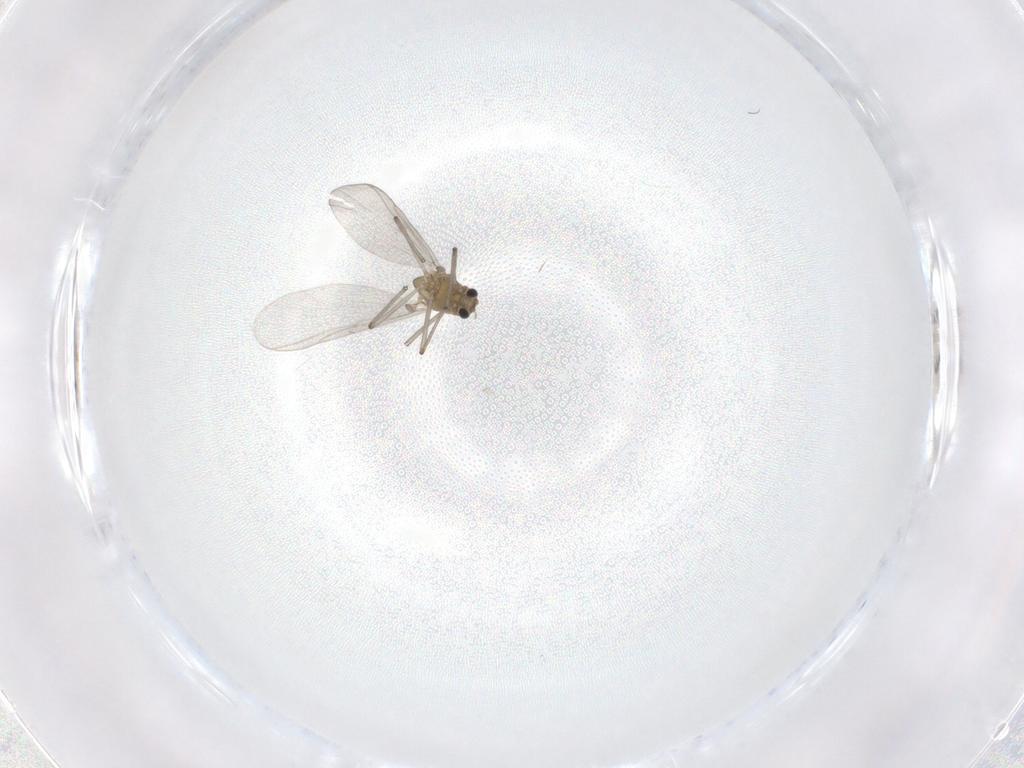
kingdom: Animalia
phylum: Arthropoda
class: Insecta
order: Diptera
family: Chironomidae
